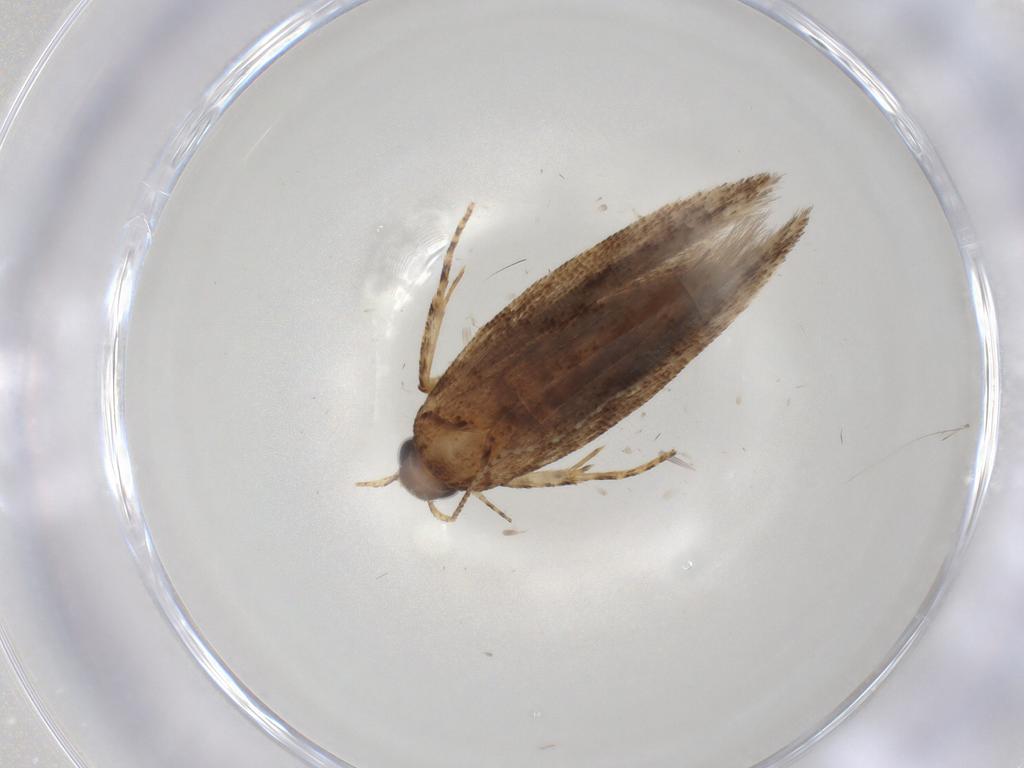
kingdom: Animalia
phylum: Arthropoda
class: Insecta
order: Lepidoptera
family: Gelechiidae
